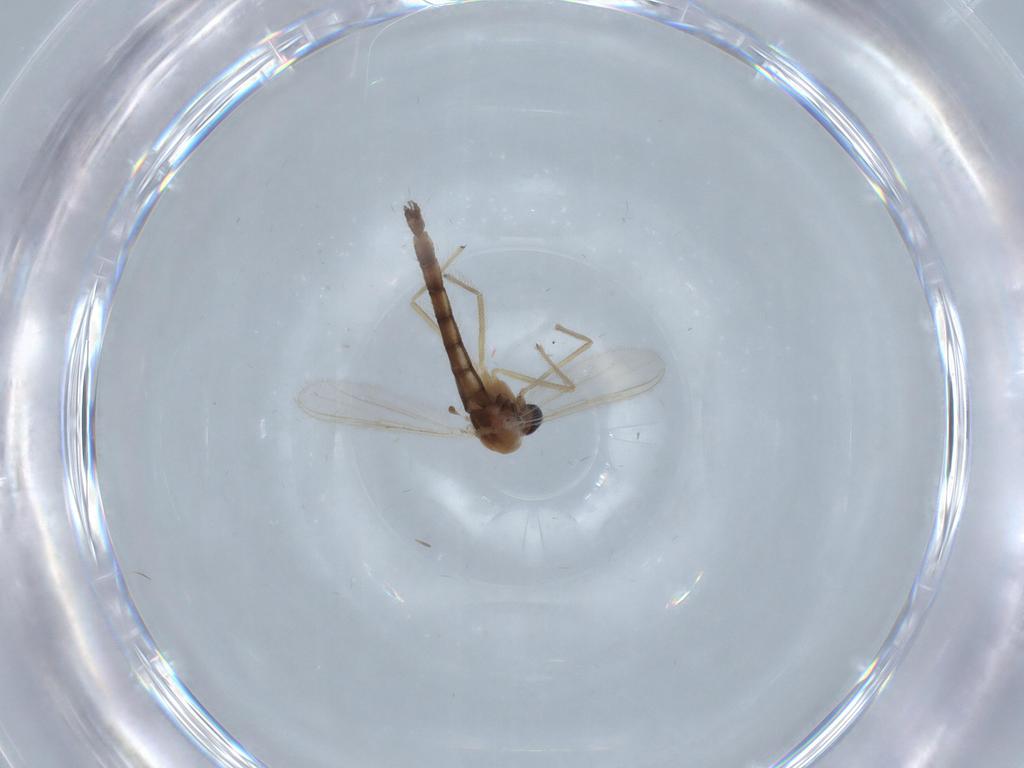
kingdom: Animalia
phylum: Arthropoda
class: Insecta
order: Diptera
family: Chironomidae
